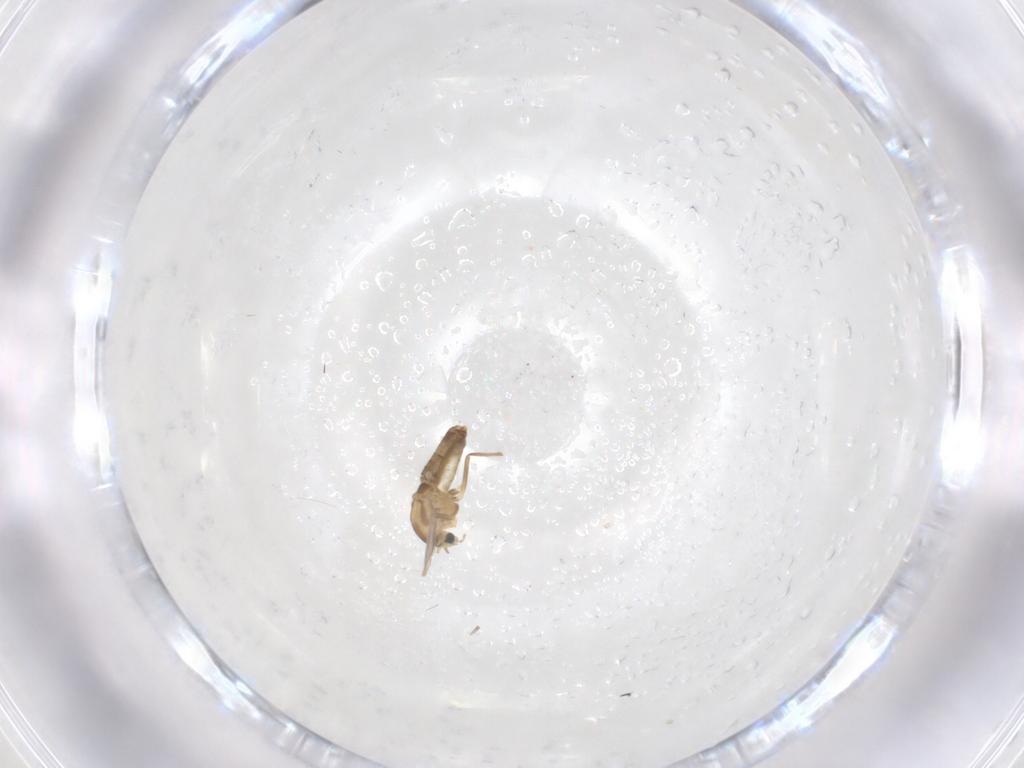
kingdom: Animalia
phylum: Arthropoda
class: Insecta
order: Diptera
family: Chironomidae
